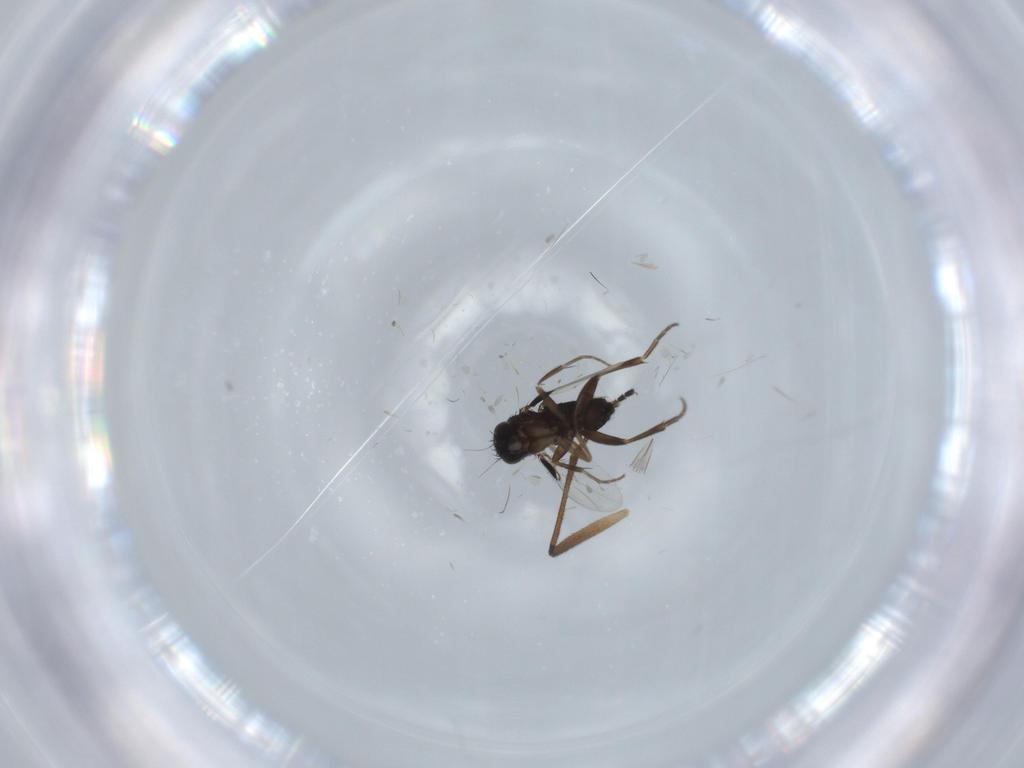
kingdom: Animalia
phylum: Arthropoda
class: Insecta
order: Diptera
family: Phoridae
